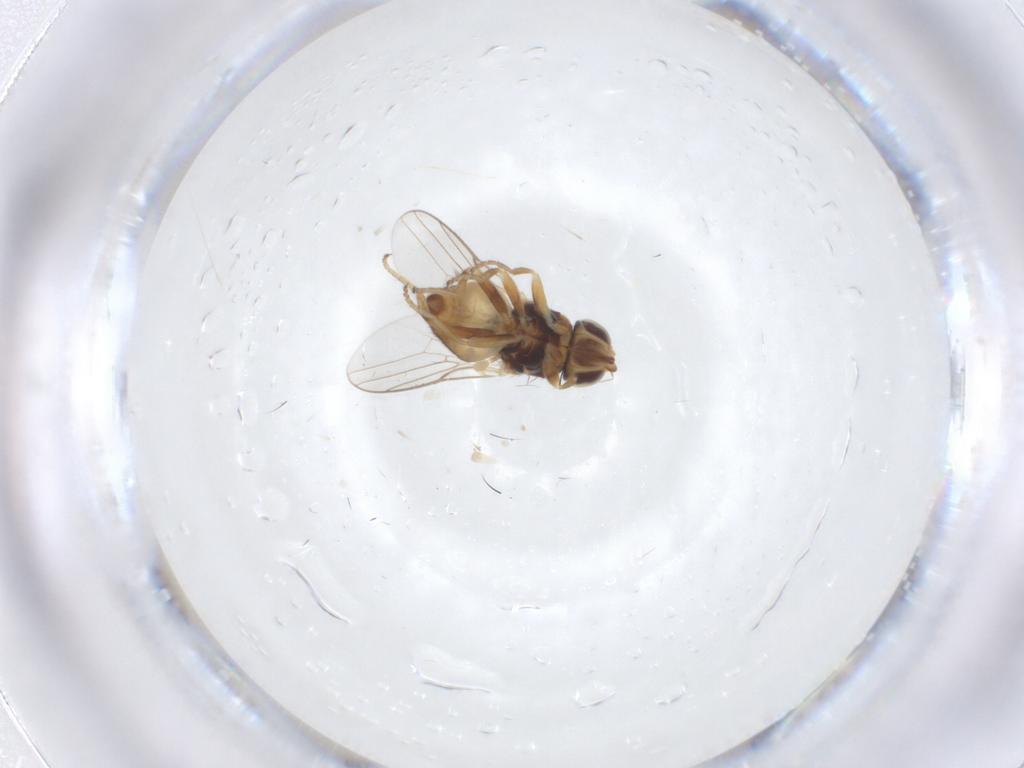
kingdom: Animalia
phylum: Arthropoda
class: Insecta
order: Diptera
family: Chloropidae
